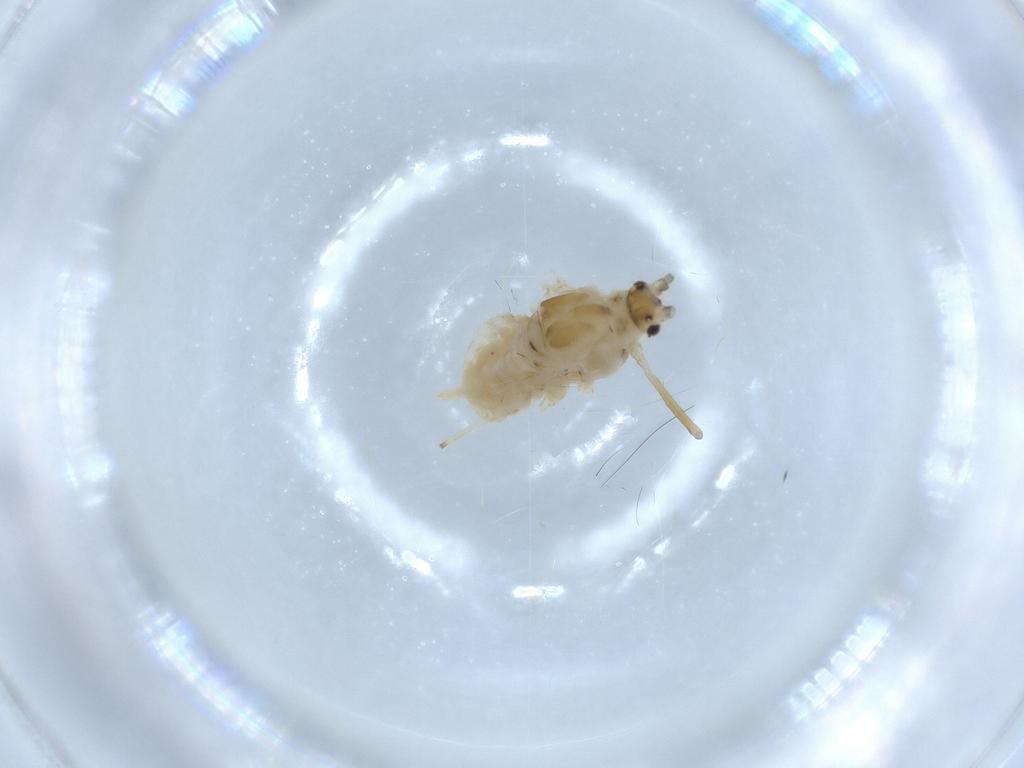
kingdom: Animalia
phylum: Arthropoda
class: Insecta
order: Hemiptera
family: Aphididae
